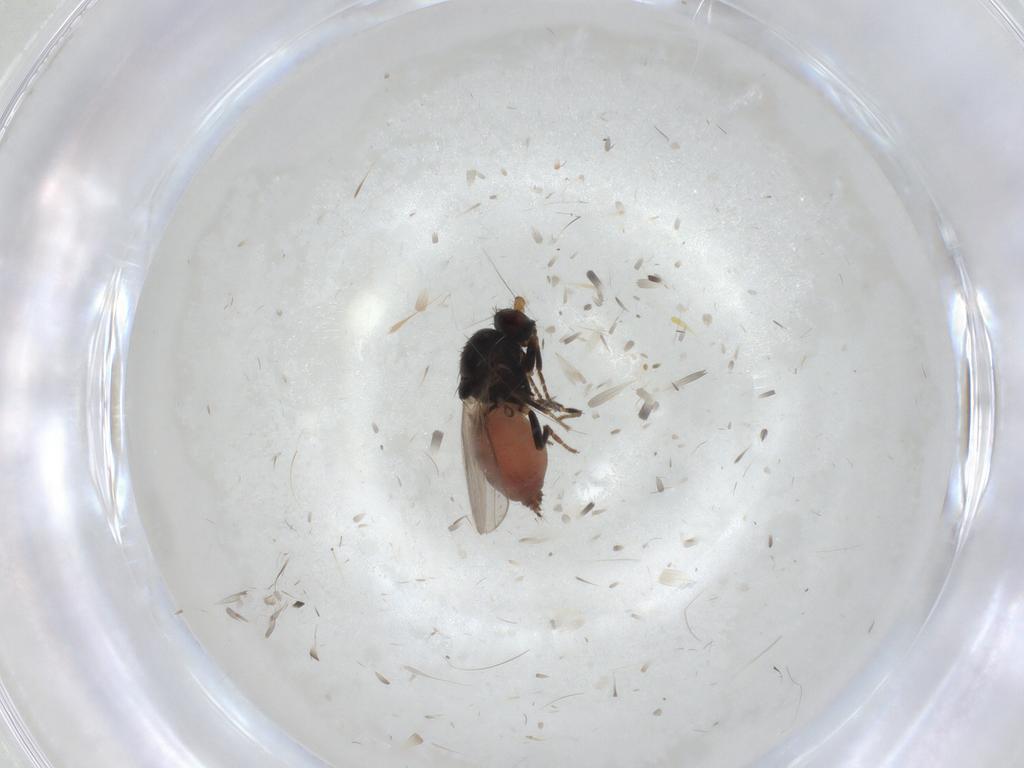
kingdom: Animalia
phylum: Arthropoda
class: Insecta
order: Diptera
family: Sphaeroceridae
